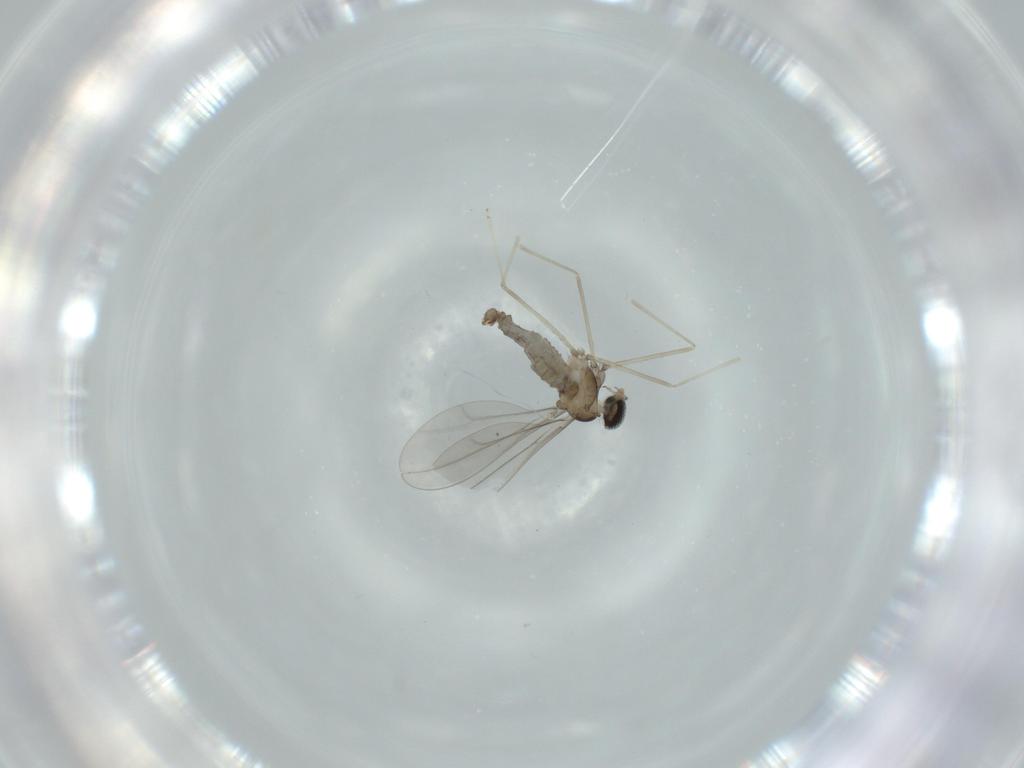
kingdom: Animalia
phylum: Arthropoda
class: Insecta
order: Diptera
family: Cecidomyiidae
